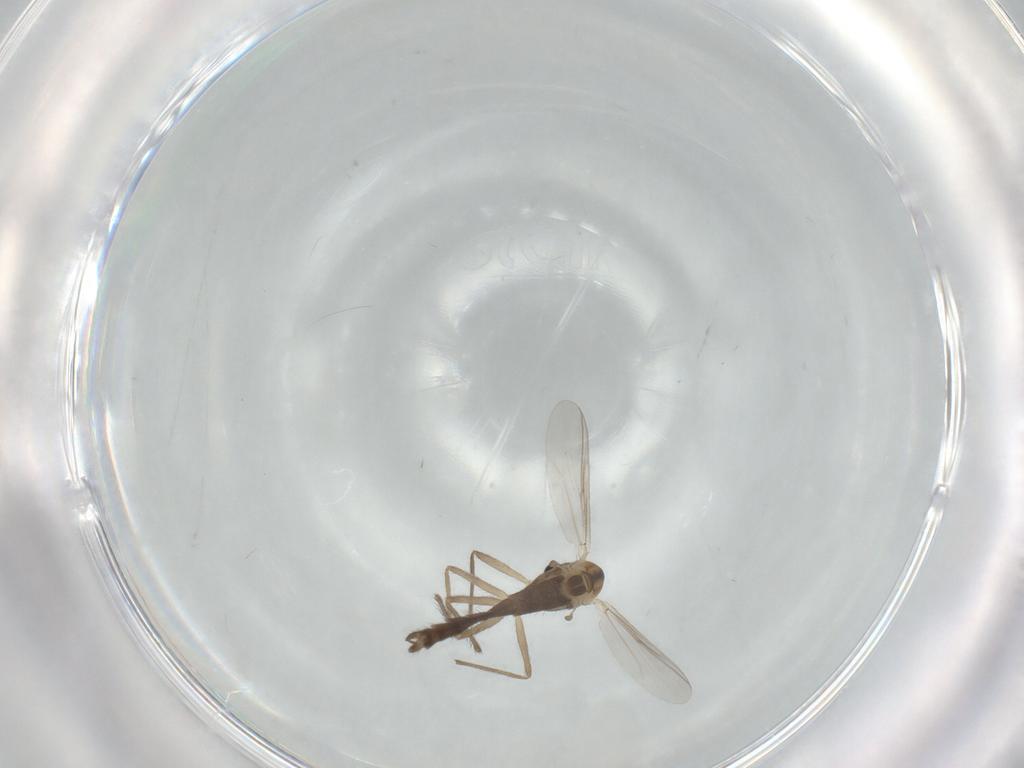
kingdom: Animalia
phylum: Arthropoda
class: Insecta
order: Diptera
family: Chironomidae
